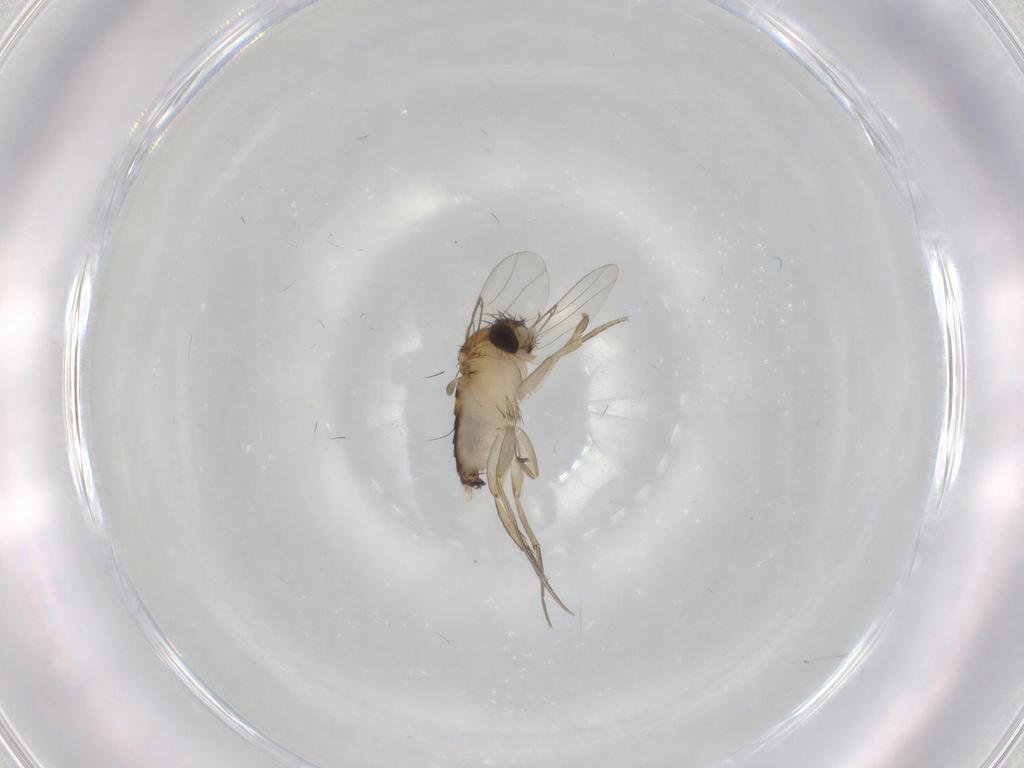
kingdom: Animalia
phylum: Arthropoda
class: Insecta
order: Diptera
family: Phoridae
